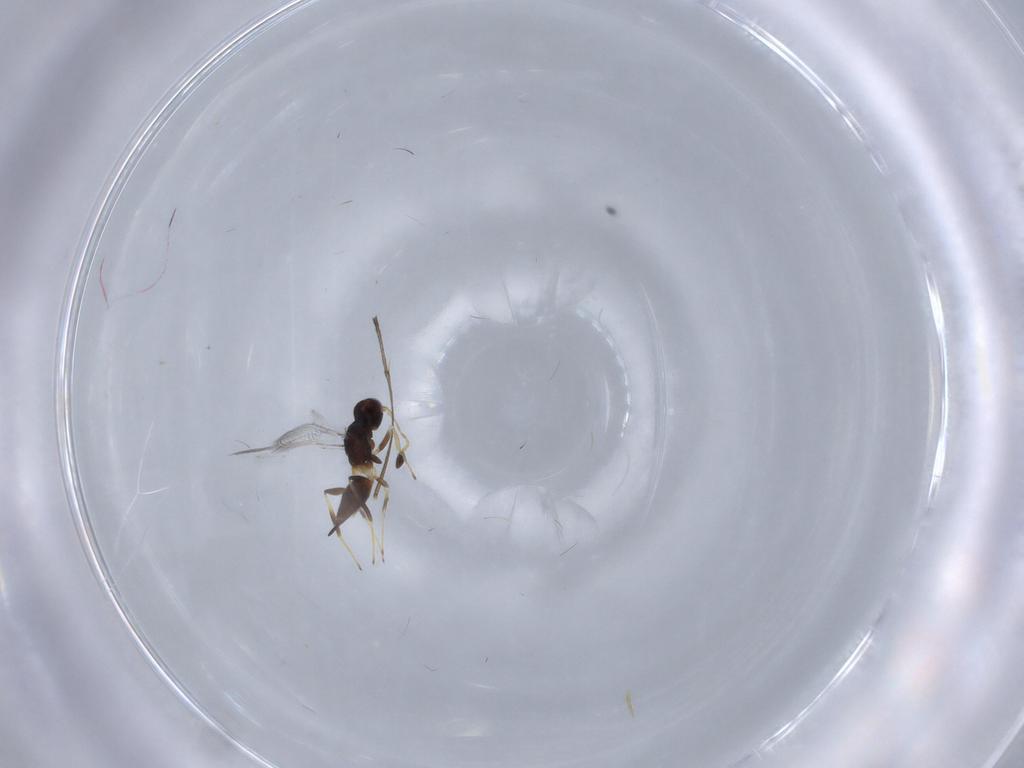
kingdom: Animalia
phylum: Arthropoda
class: Insecta
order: Hymenoptera
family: Mymaridae
